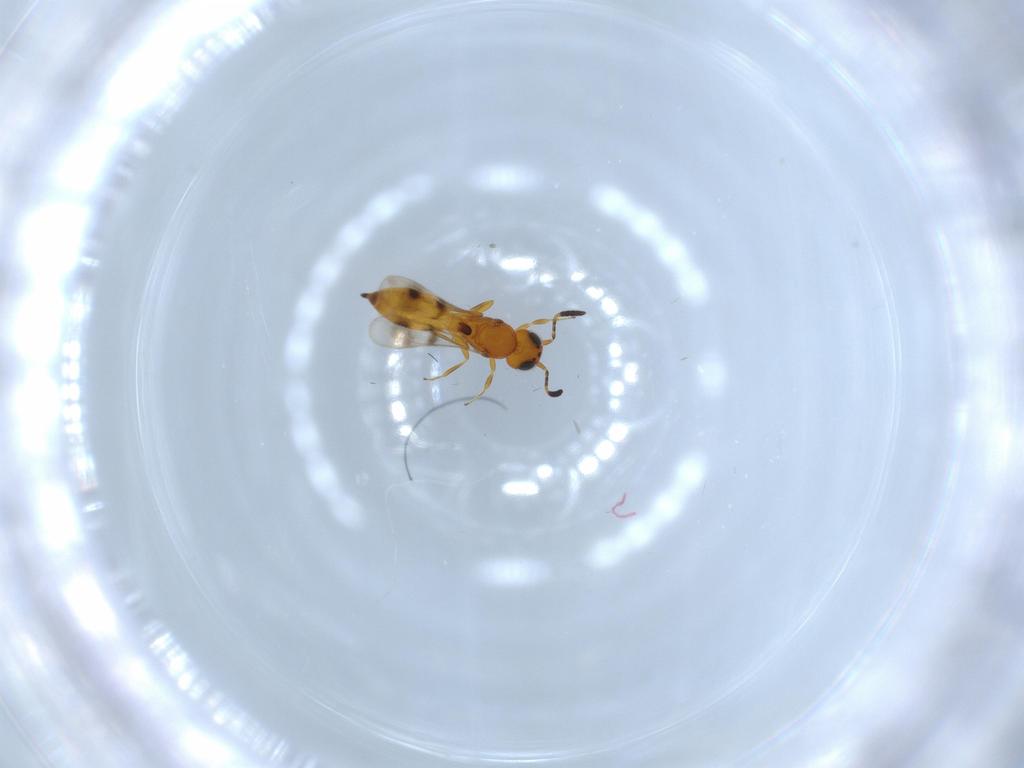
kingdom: Animalia
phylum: Arthropoda
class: Insecta
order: Hymenoptera
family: Scelionidae
